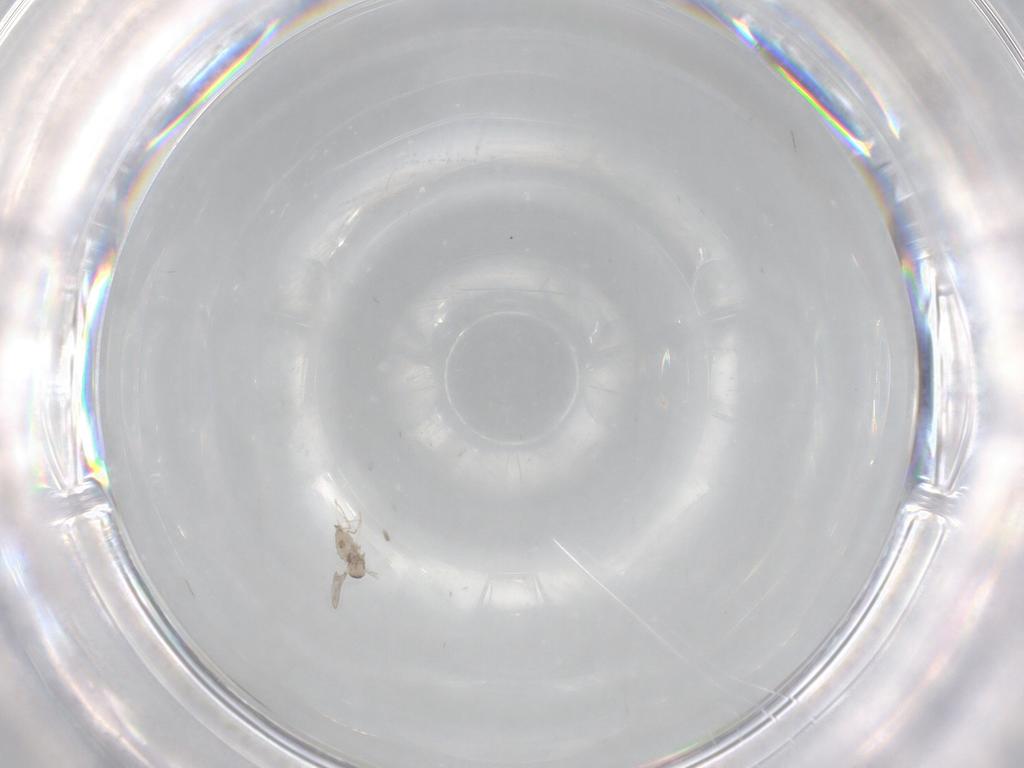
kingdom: Animalia
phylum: Arthropoda
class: Insecta
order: Diptera
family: Cecidomyiidae
